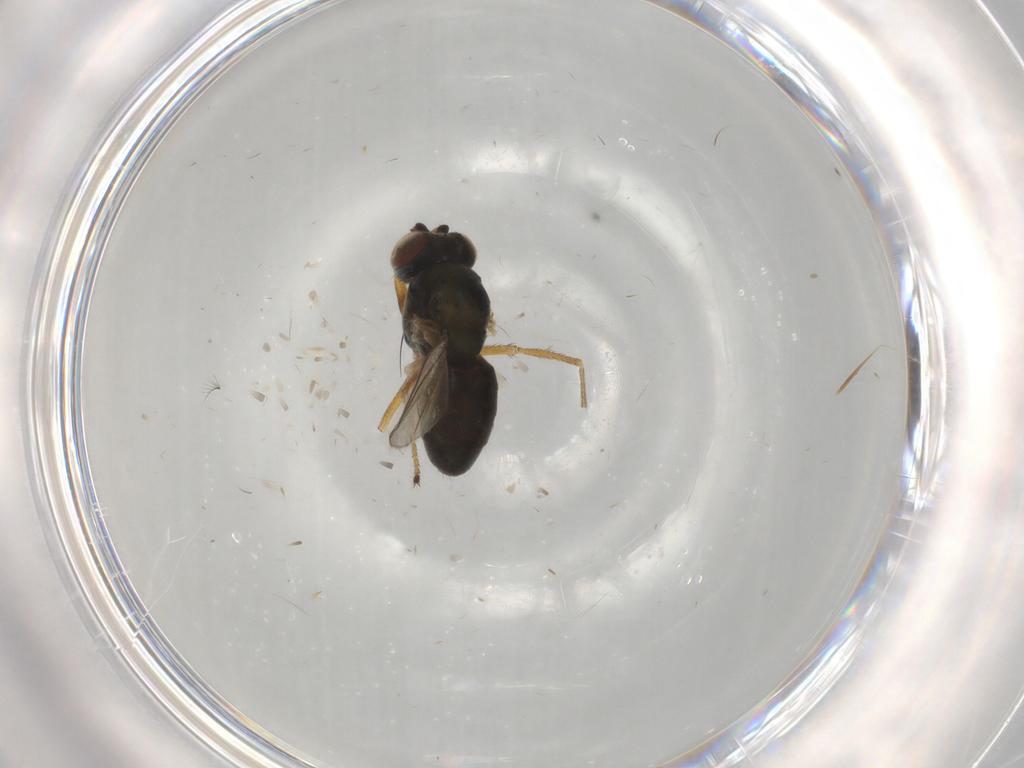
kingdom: Animalia
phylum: Arthropoda
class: Insecta
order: Diptera
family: Ephydridae
